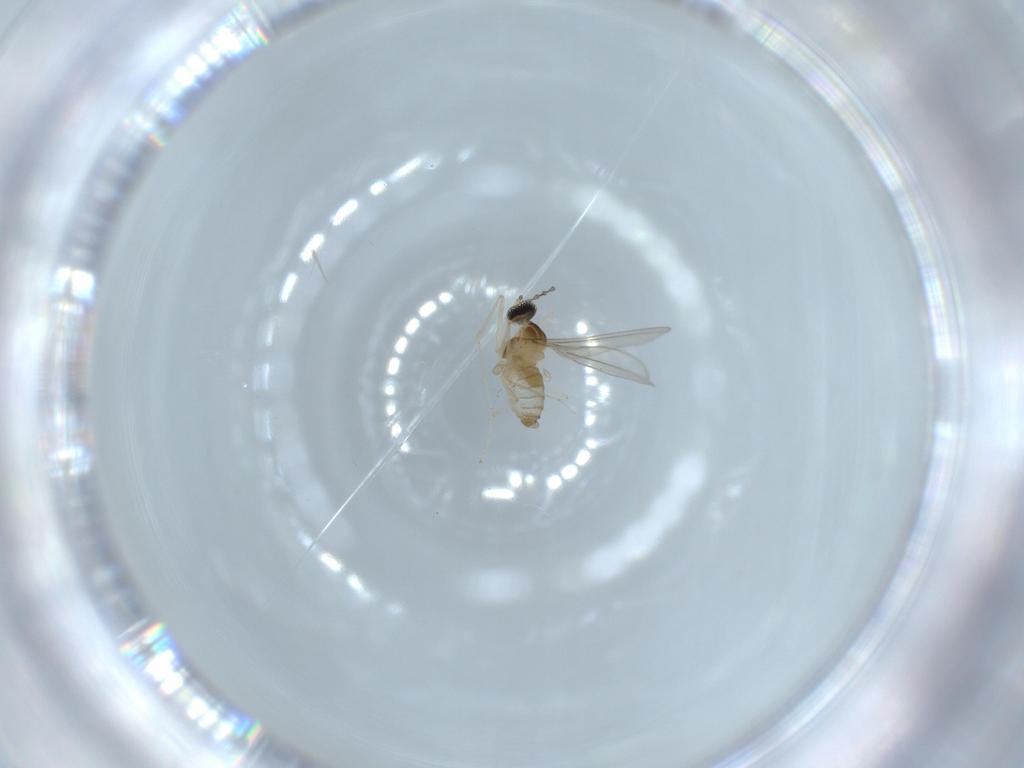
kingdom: Animalia
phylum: Arthropoda
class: Insecta
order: Diptera
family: Cecidomyiidae
